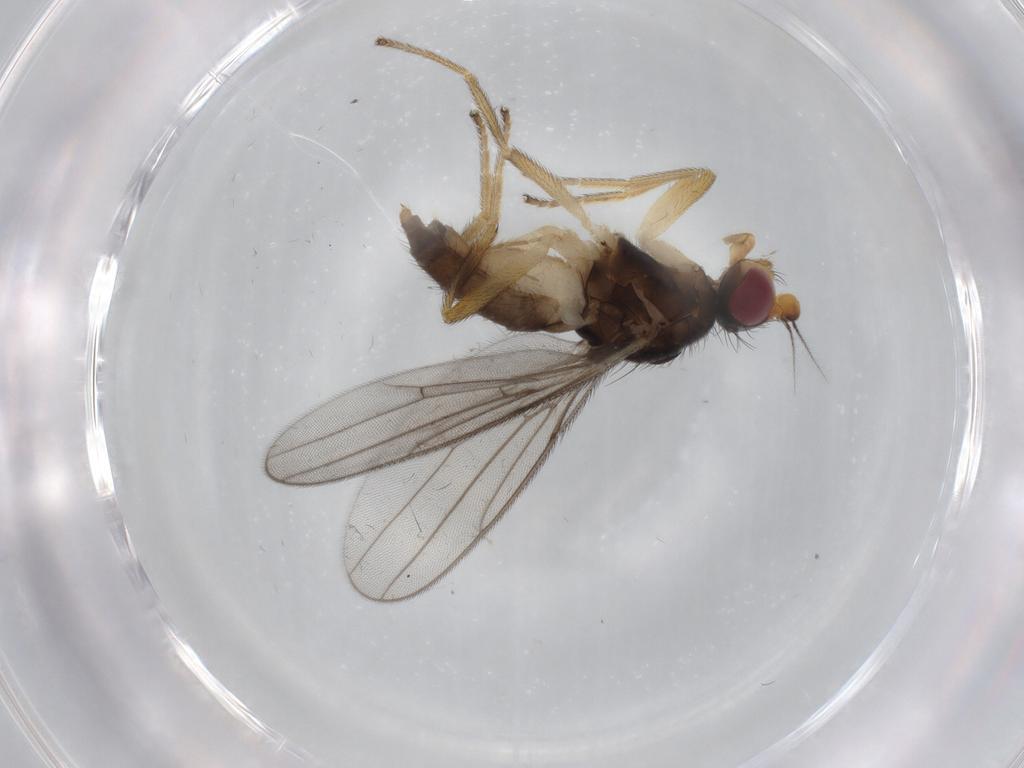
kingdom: Animalia
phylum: Arthropoda
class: Insecta
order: Diptera
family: Chloropidae
